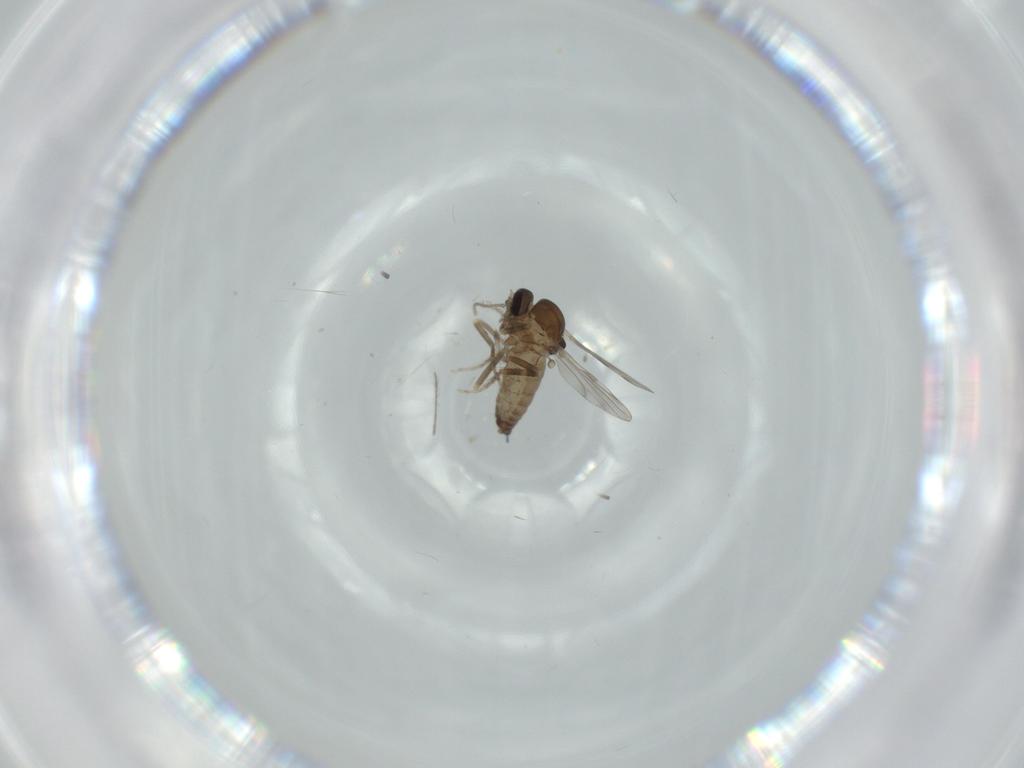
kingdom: Animalia
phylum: Arthropoda
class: Insecta
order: Diptera
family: Ceratopogonidae
